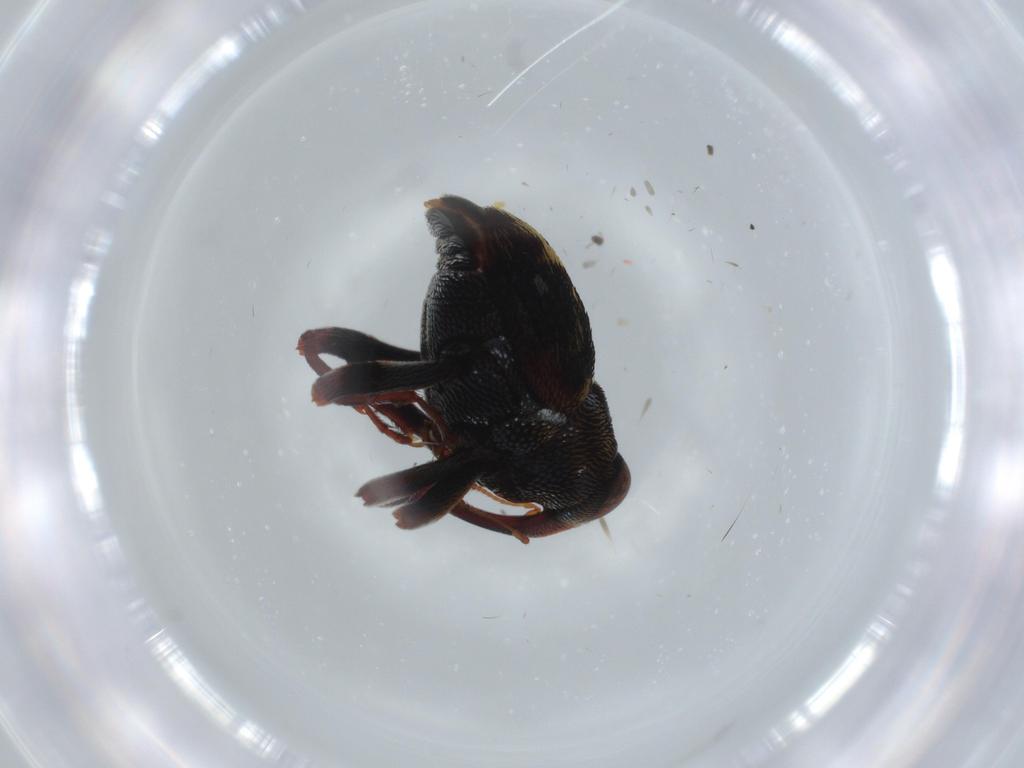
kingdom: Animalia
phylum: Arthropoda
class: Insecta
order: Coleoptera
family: Curculionidae
